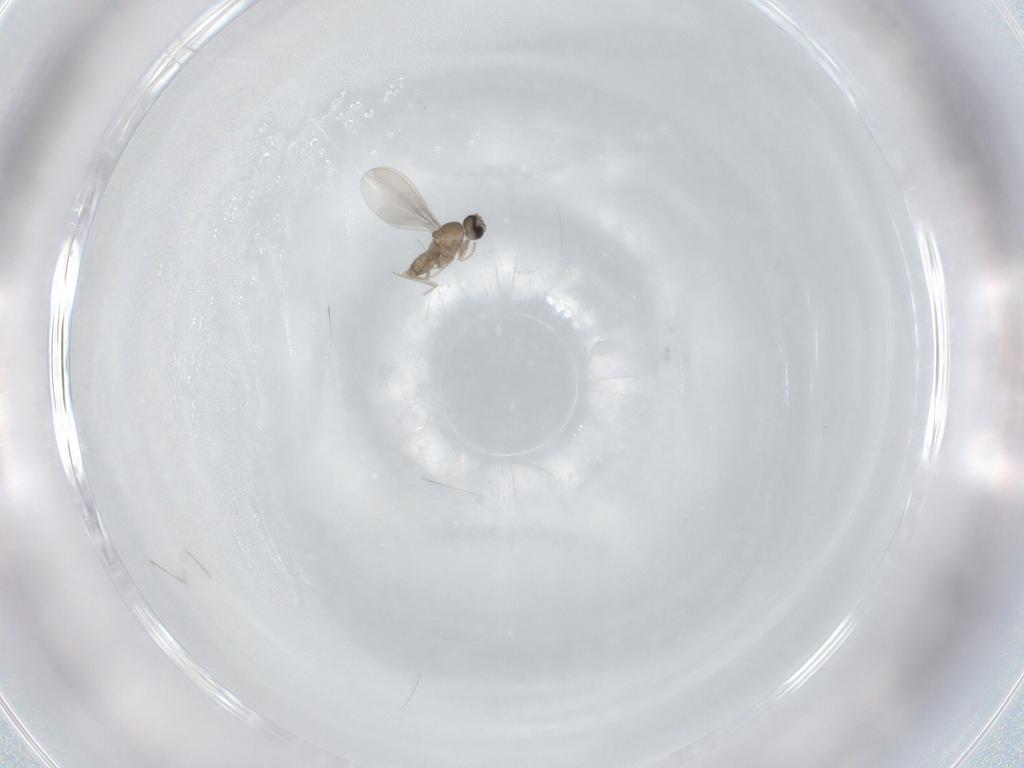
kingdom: Animalia
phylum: Arthropoda
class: Insecta
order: Diptera
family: Sciaridae
